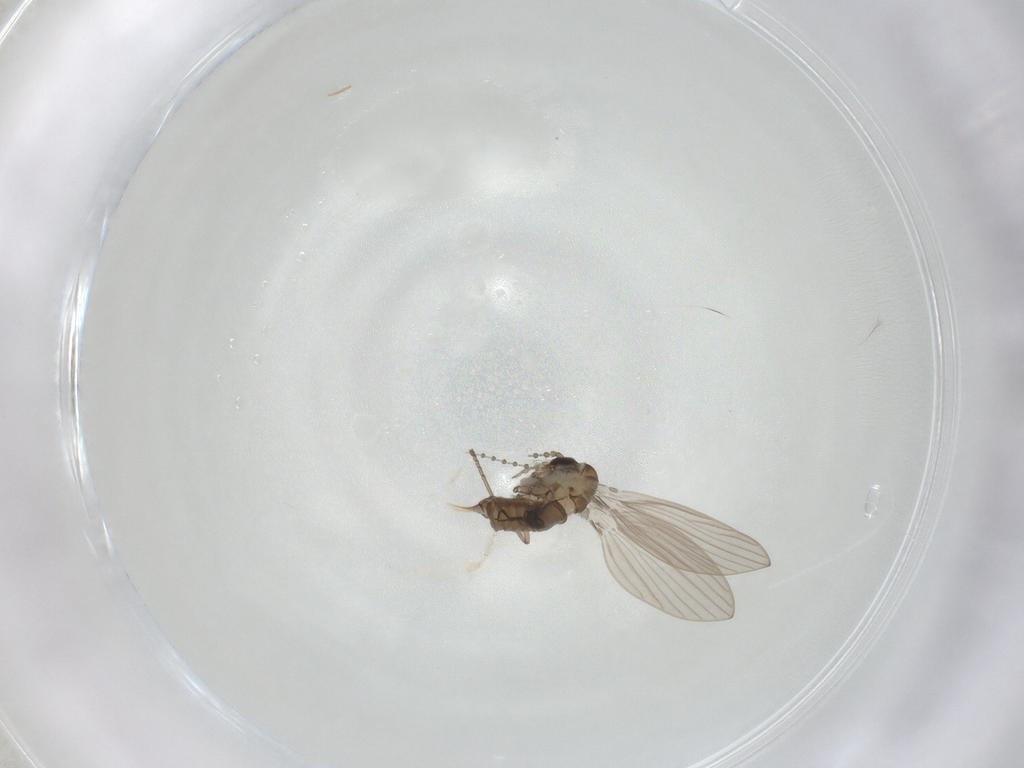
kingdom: Animalia
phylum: Arthropoda
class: Insecta
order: Diptera
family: Psychodidae
